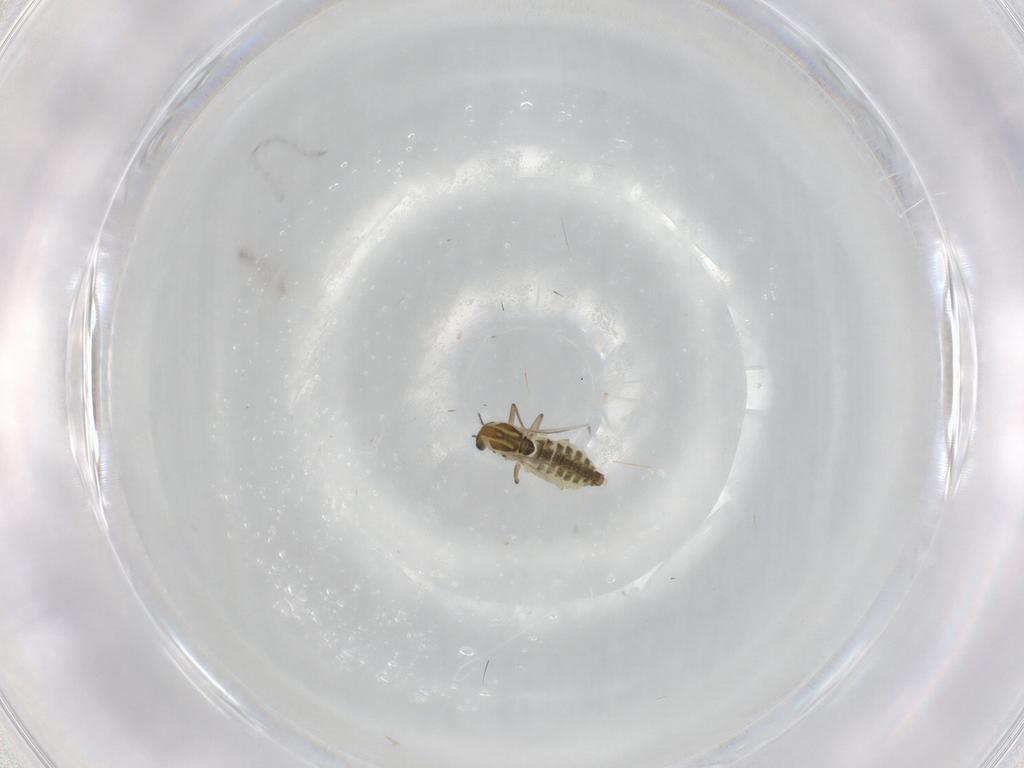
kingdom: Animalia
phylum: Arthropoda
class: Insecta
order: Diptera
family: Chironomidae
